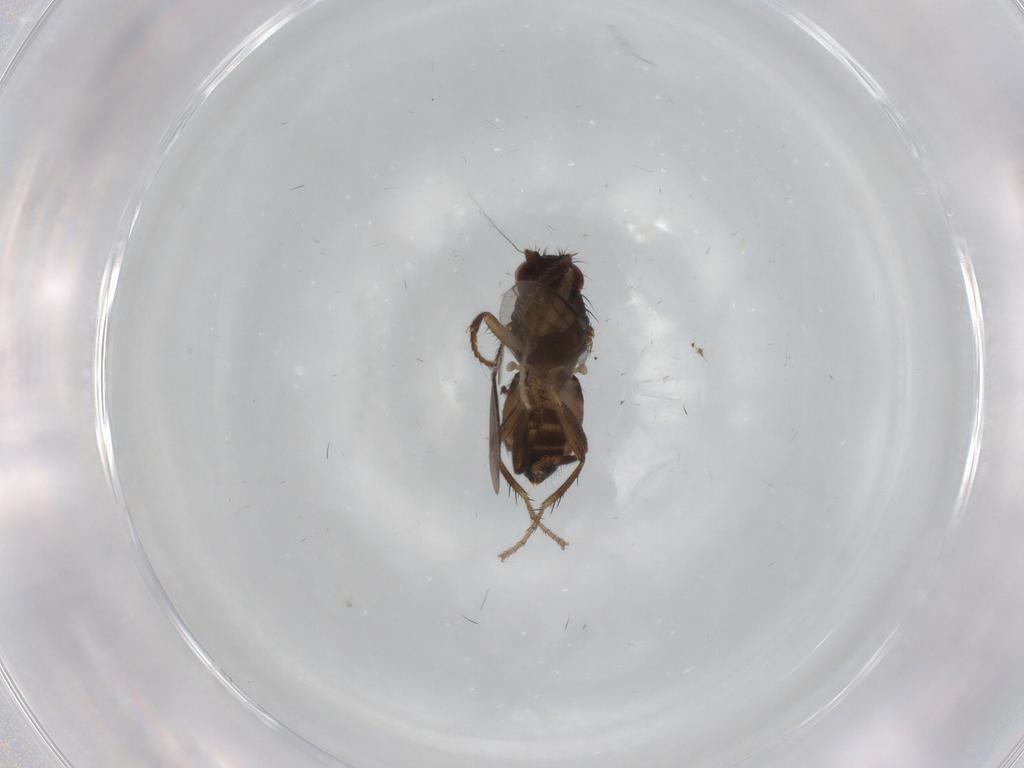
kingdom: Animalia
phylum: Arthropoda
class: Insecta
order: Diptera
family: Sphaeroceridae
